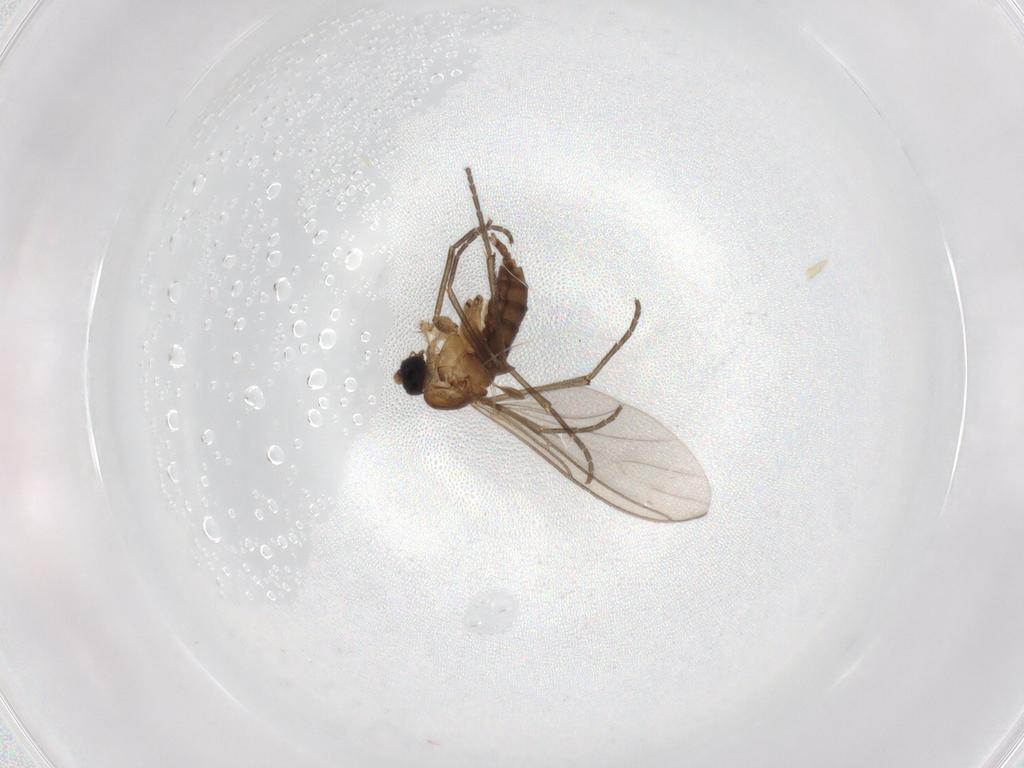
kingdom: Animalia
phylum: Arthropoda
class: Insecta
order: Diptera
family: Sciaridae
